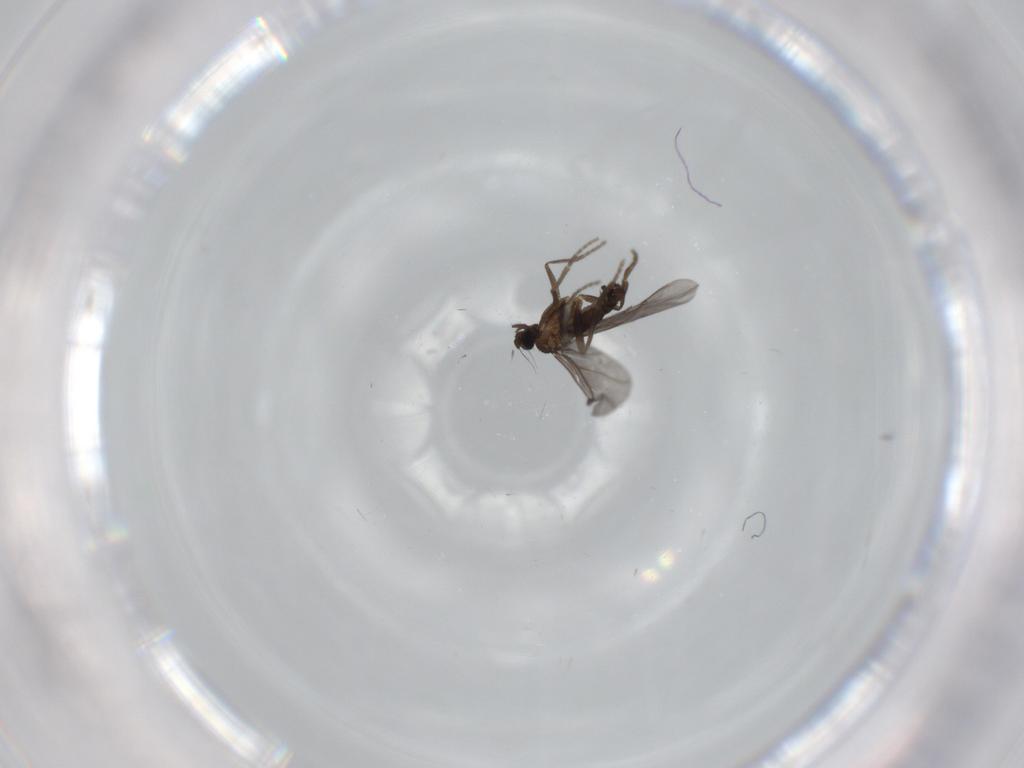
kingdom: Animalia
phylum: Arthropoda
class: Insecta
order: Diptera
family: Phoridae
